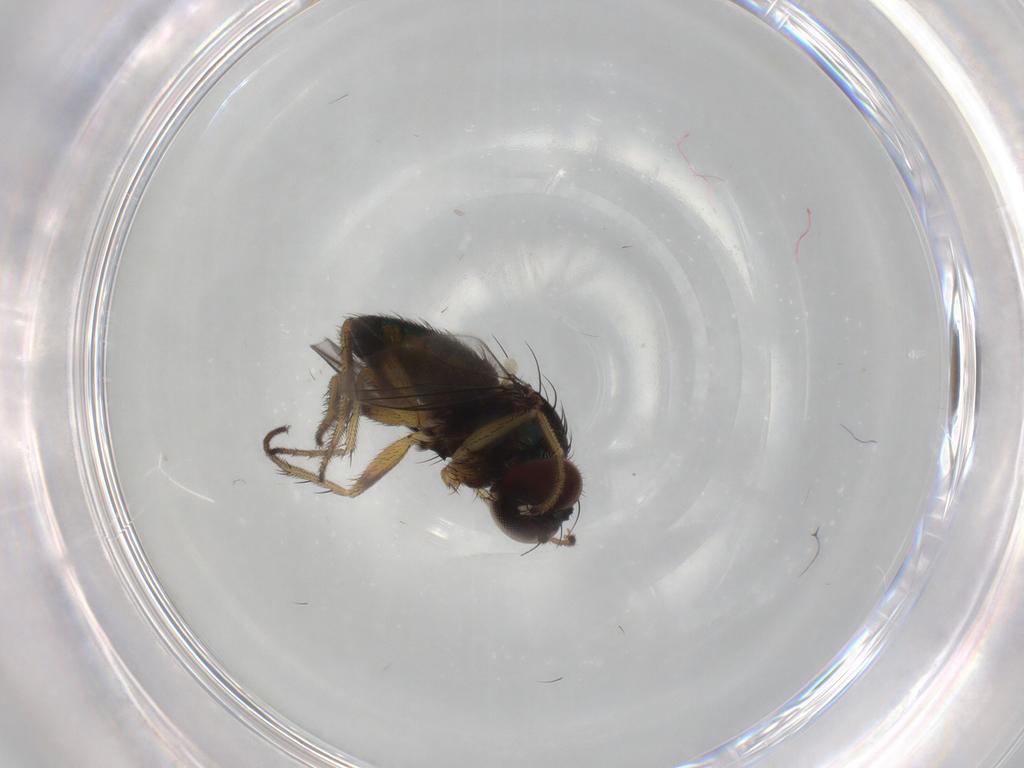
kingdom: Animalia
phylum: Arthropoda
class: Insecta
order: Diptera
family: Dolichopodidae
